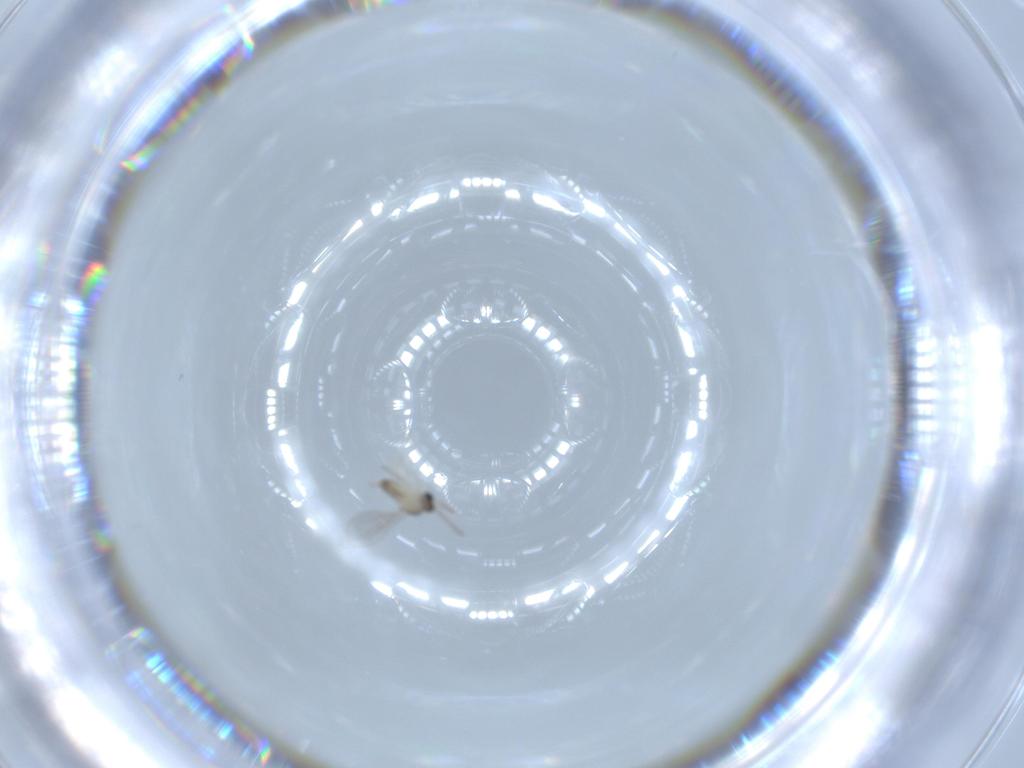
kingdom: Animalia
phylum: Arthropoda
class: Insecta
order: Diptera
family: Cecidomyiidae
